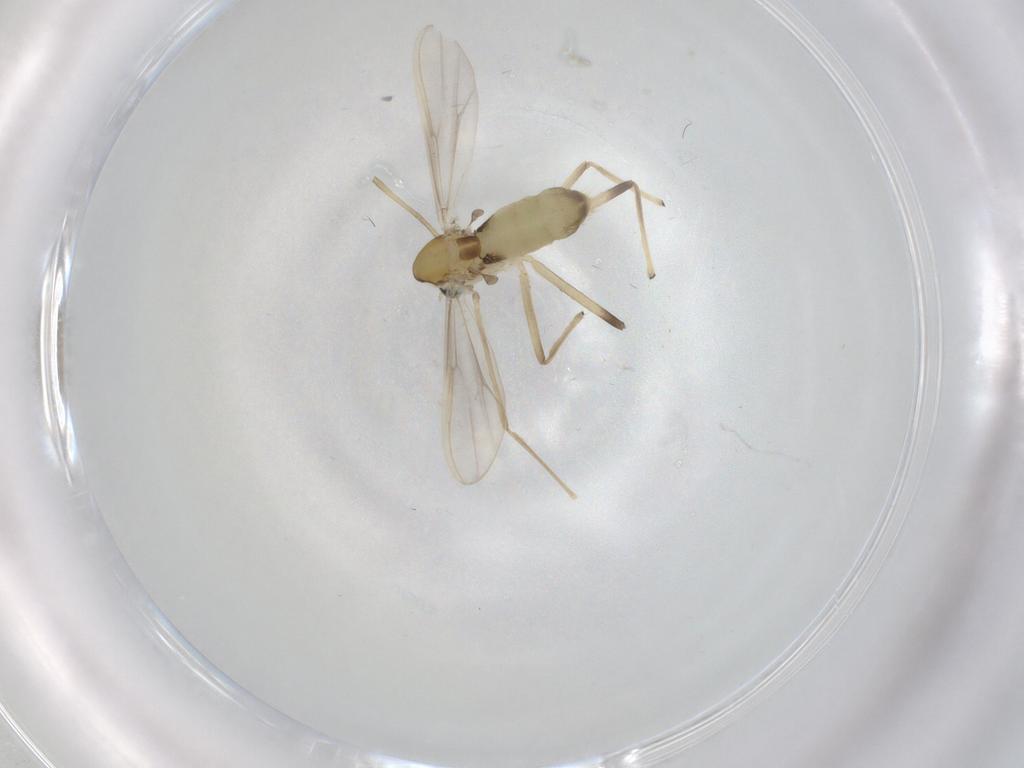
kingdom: Animalia
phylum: Arthropoda
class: Insecta
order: Diptera
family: Chironomidae
